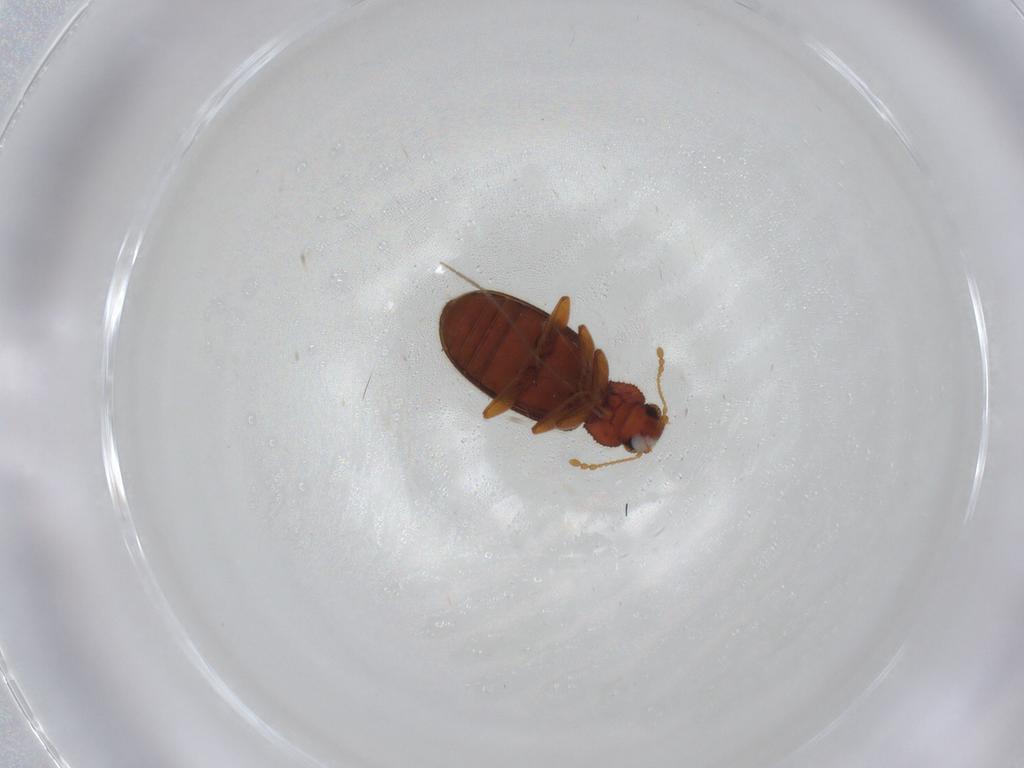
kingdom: Animalia
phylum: Arthropoda
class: Insecta
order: Coleoptera
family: Latridiidae
